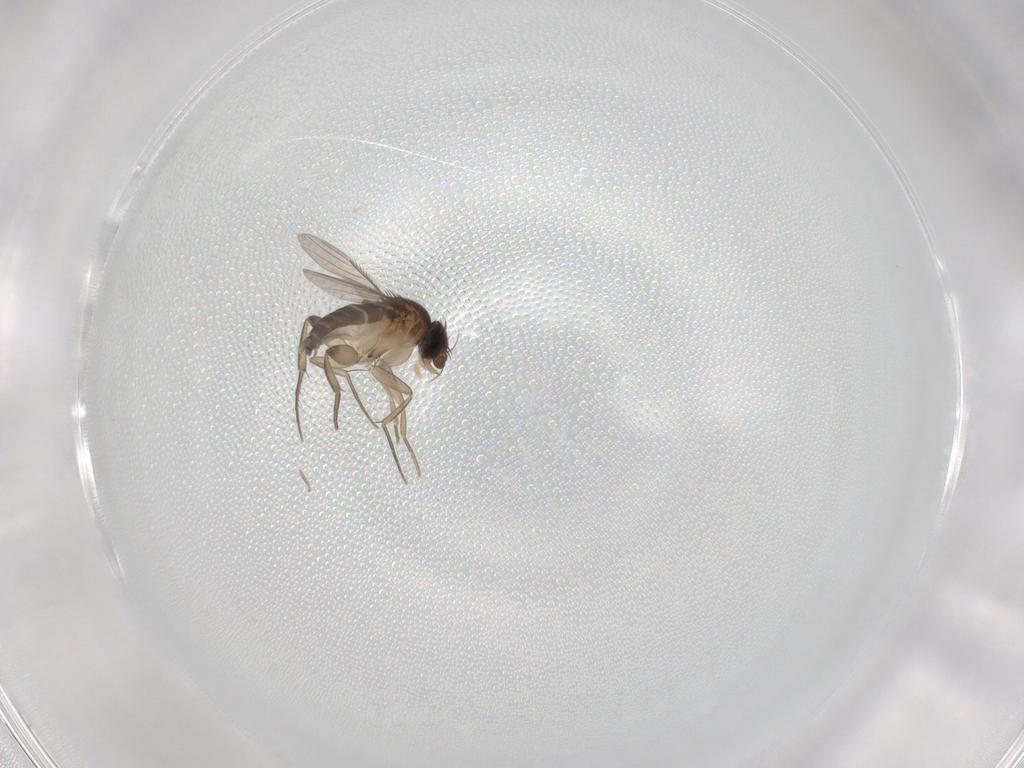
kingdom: Animalia
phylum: Arthropoda
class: Insecta
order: Diptera
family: Phoridae
